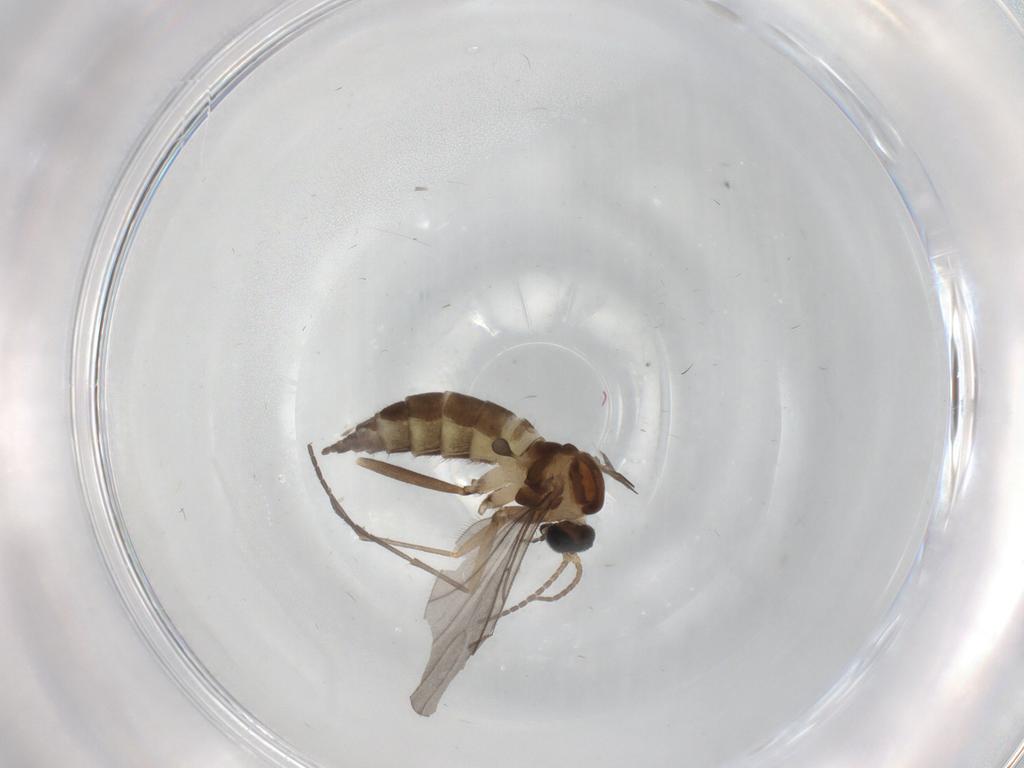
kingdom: Animalia
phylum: Arthropoda
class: Insecta
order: Diptera
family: Sciaridae
